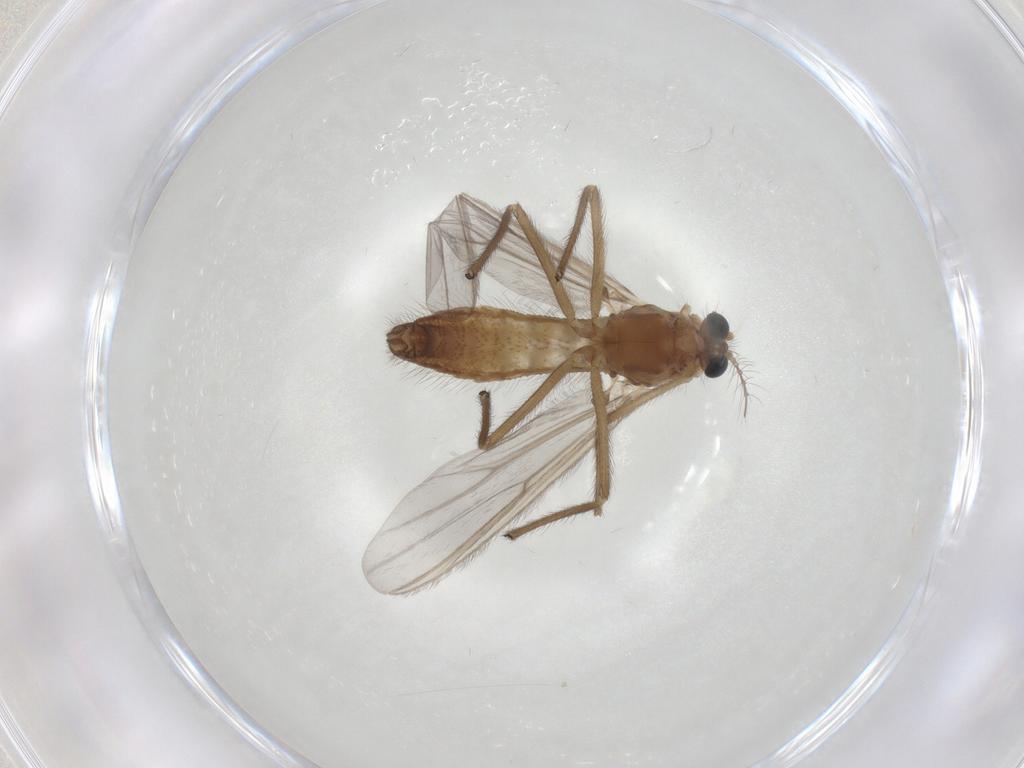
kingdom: Animalia
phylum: Arthropoda
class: Insecta
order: Diptera
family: Chironomidae
